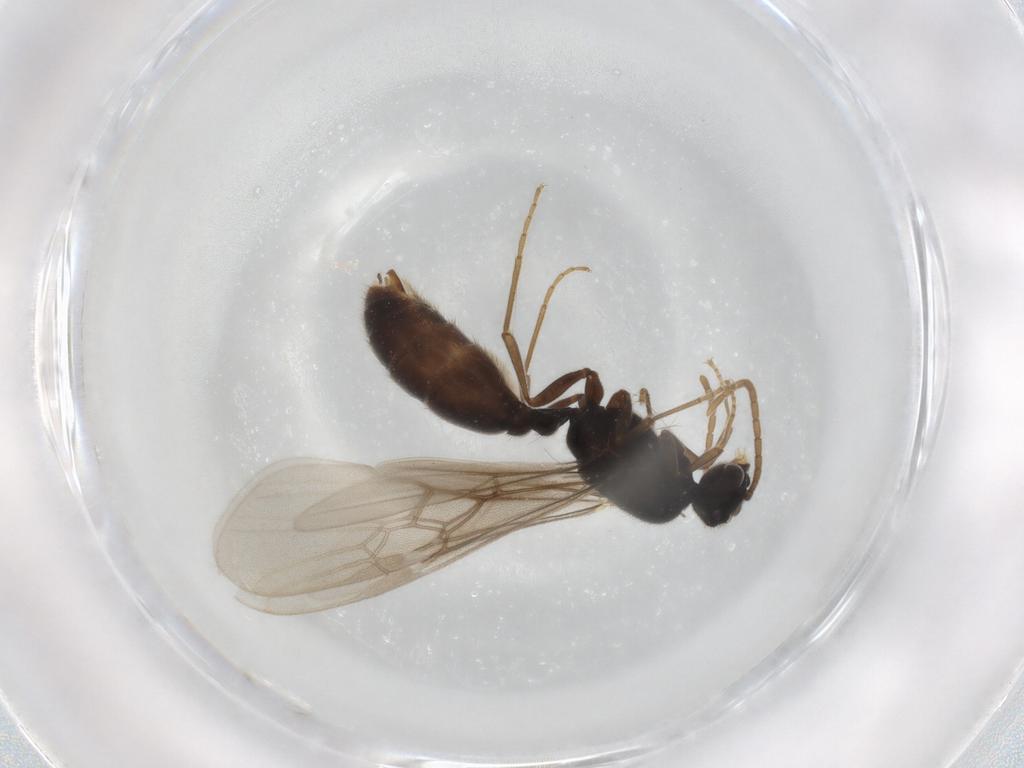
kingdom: Animalia
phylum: Arthropoda
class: Insecta
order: Hymenoptera
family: Formicidae
